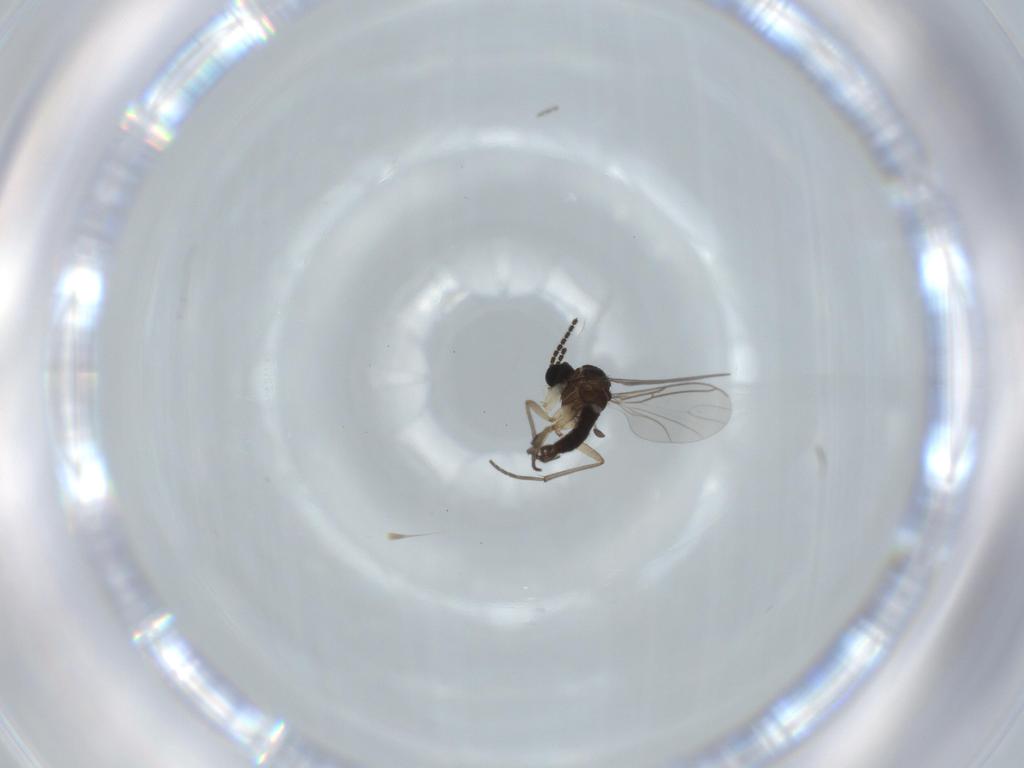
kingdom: Animalia
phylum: Arthropoda
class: Insecta
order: Diptera
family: Sciaridae
